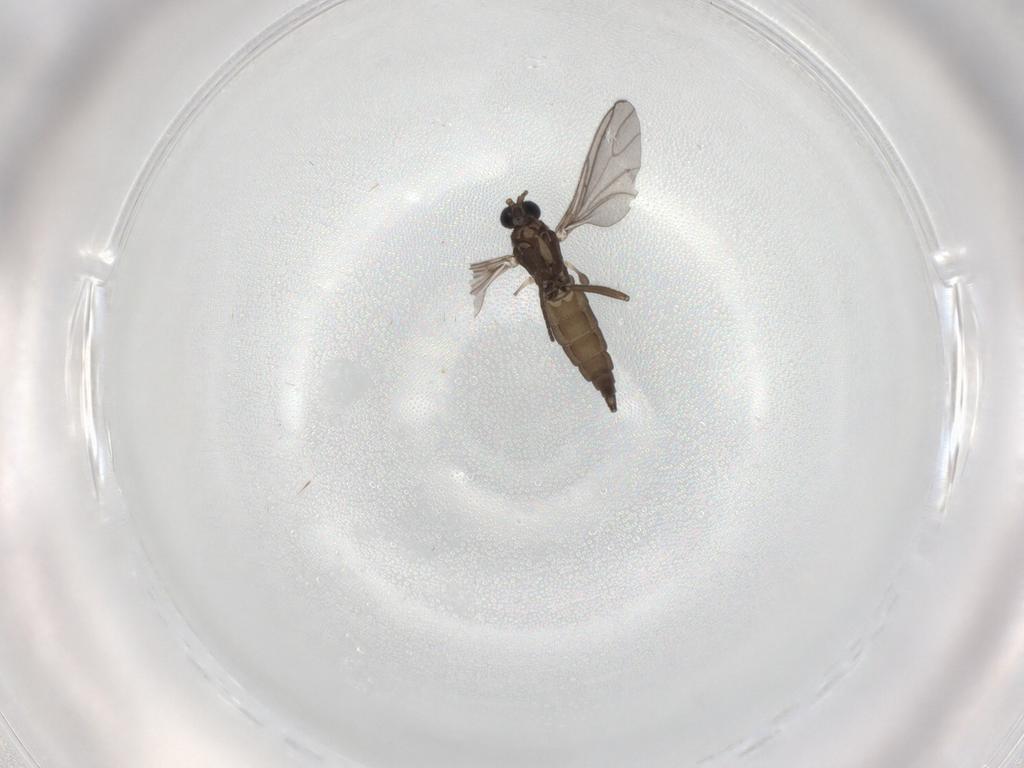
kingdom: Animalia
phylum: Arthropoda
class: Insecta
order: Diptera
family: Sciaridae
